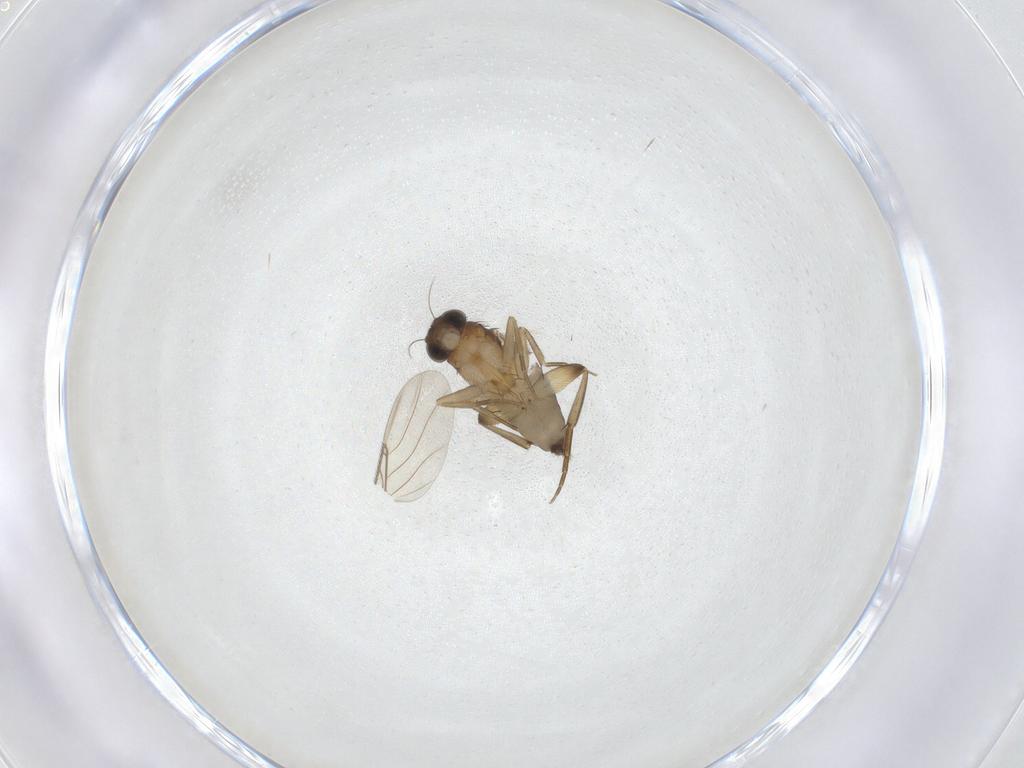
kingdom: Animalia
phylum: Arthropoda
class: Insecta
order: Diptera
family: Phoridae
